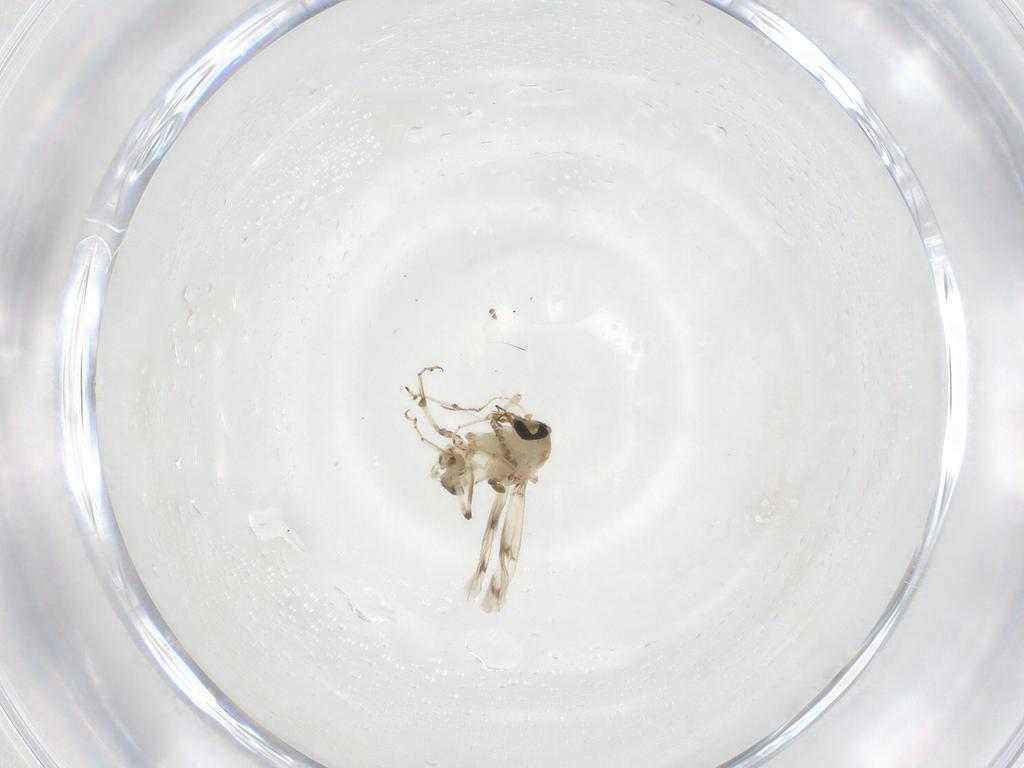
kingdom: Animalia
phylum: Arthropoda
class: Insecta
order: Diptera
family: Ceratopogonidae
